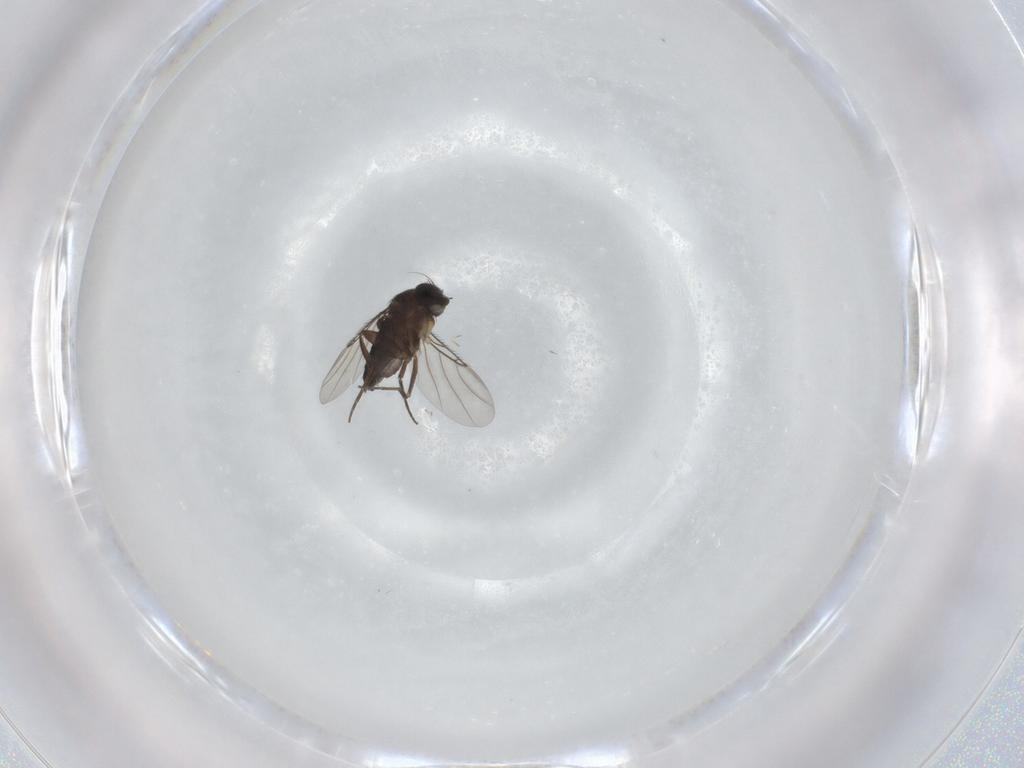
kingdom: Animalia
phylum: Arthropoda
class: Insecta
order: Diptera
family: Phoridae
